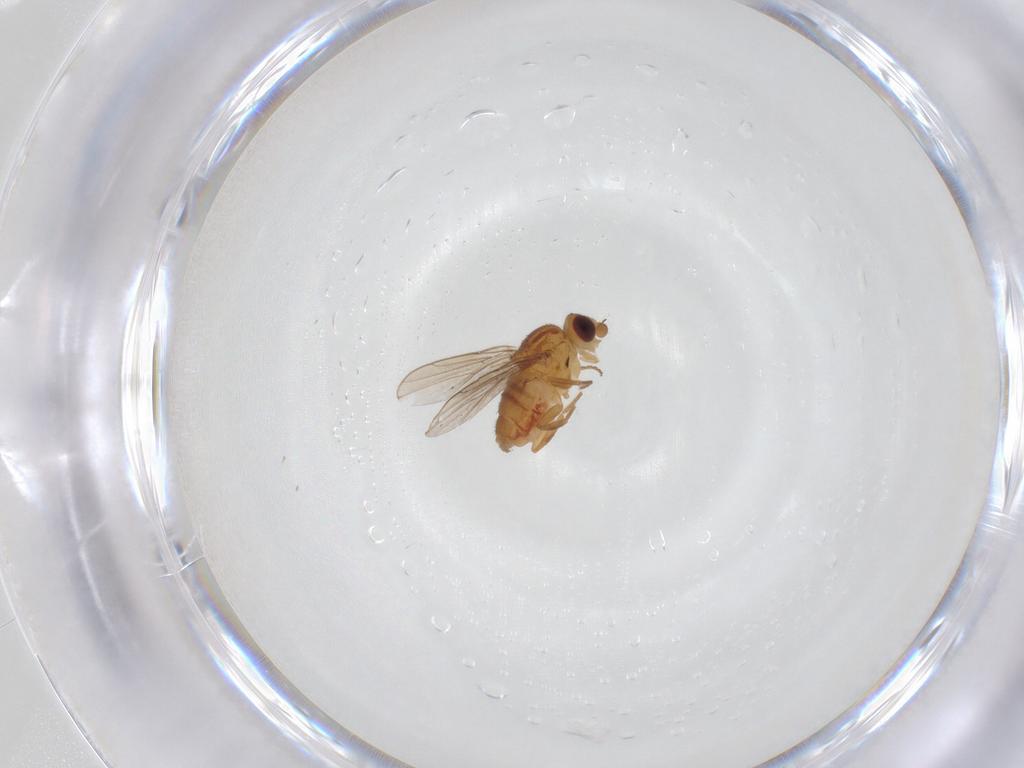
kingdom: Animalia
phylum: Arthropoda
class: Insecta
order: Diptera
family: Chloropidae
